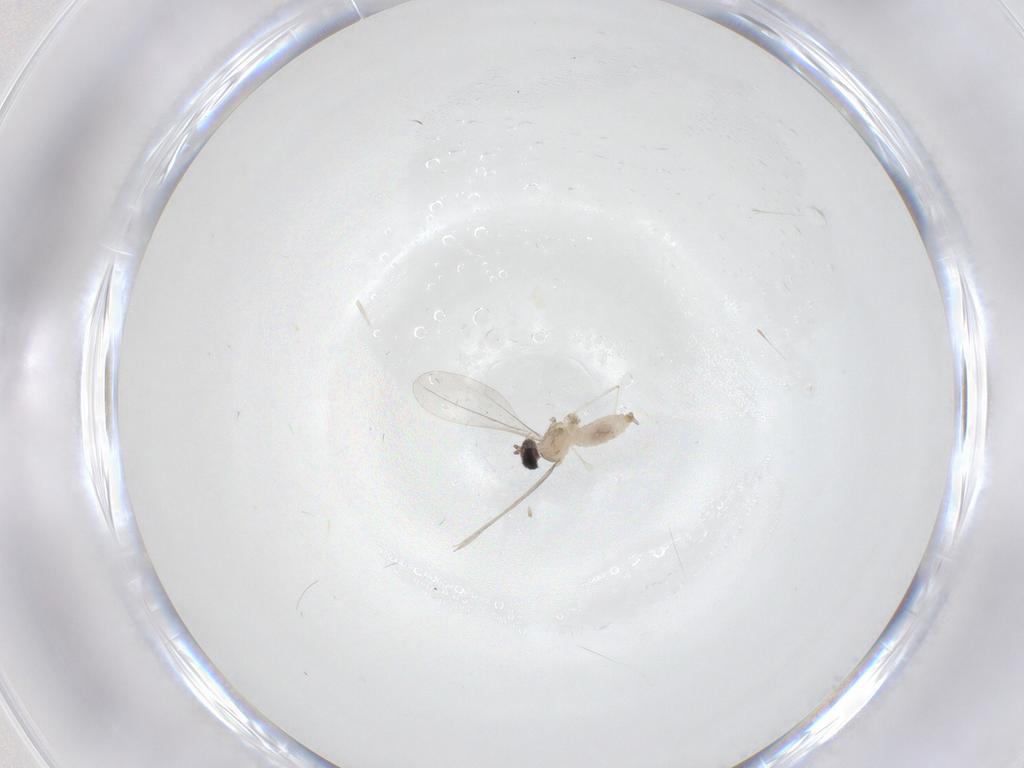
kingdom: Animalia
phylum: Arthropoda
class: Insecta
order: Diptera
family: Cecidomyiidae
